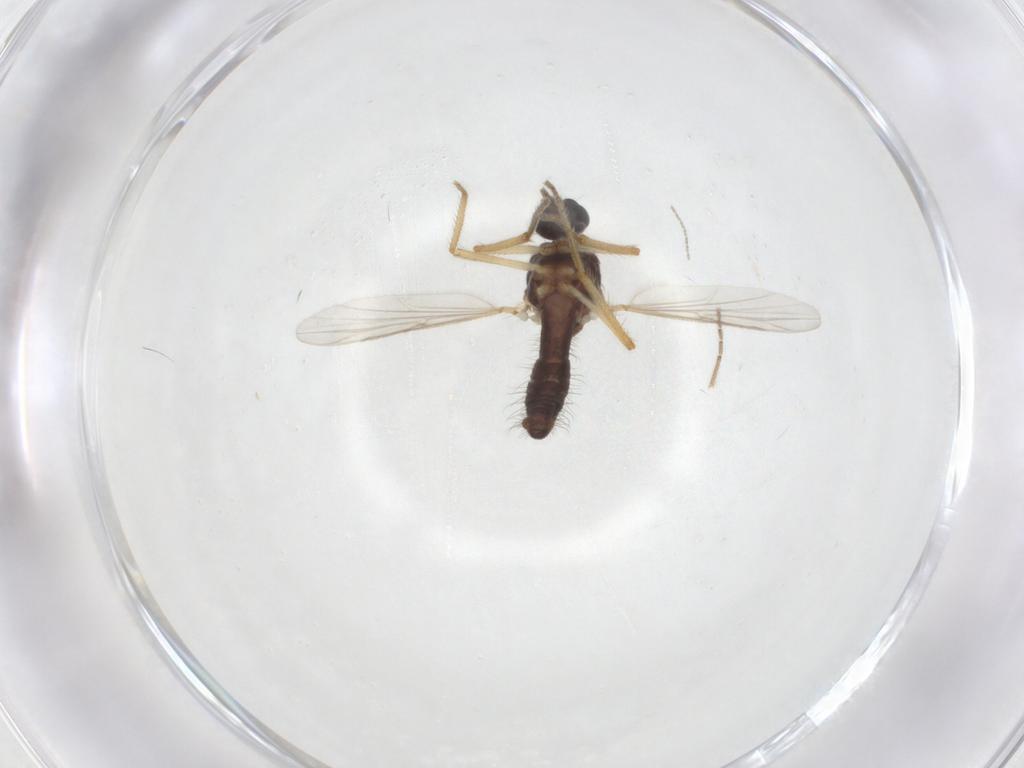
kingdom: Animalia
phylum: Arthropoda
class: Insecta
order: Diptera
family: Ceratopogonidae
